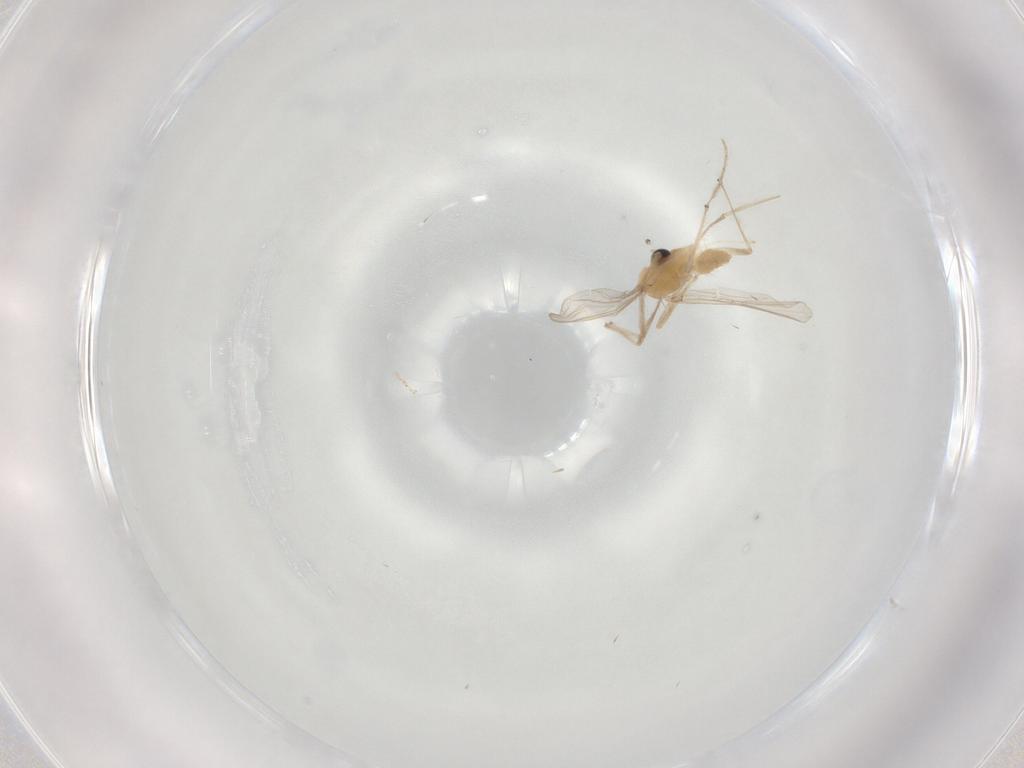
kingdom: Animalia
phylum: Arthropoda
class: Insecta
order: Diptera
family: Chironomidae
